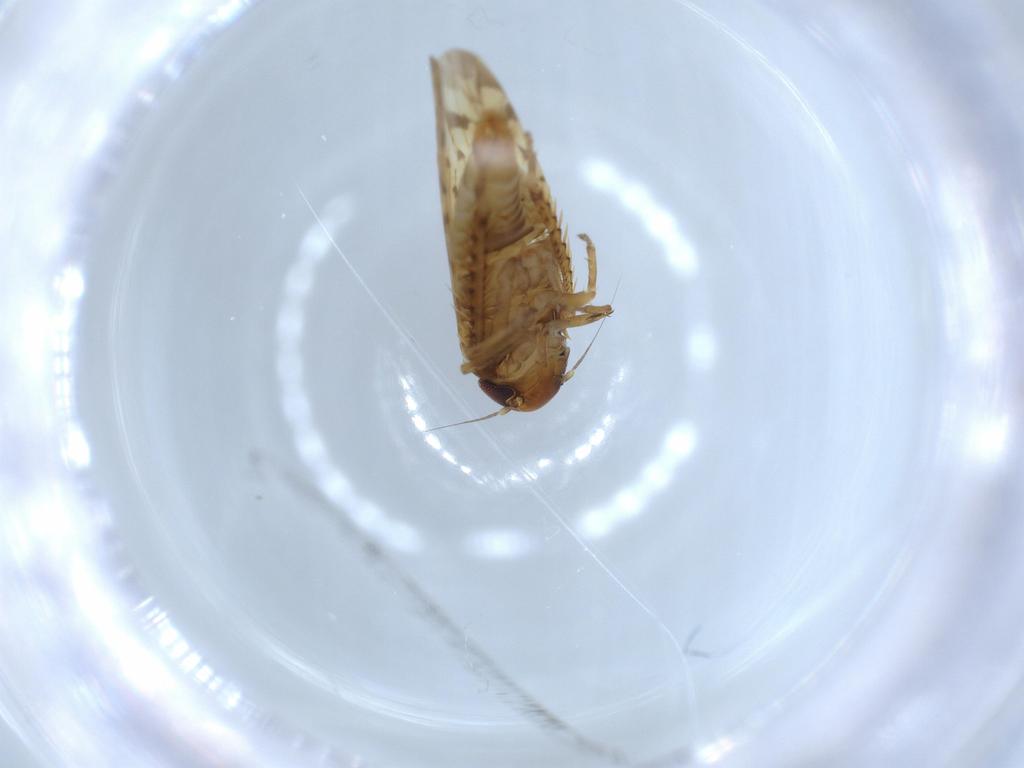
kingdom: Animalia
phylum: Arthropoda
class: Insecta
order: Hemiptera
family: Cicadellidae
